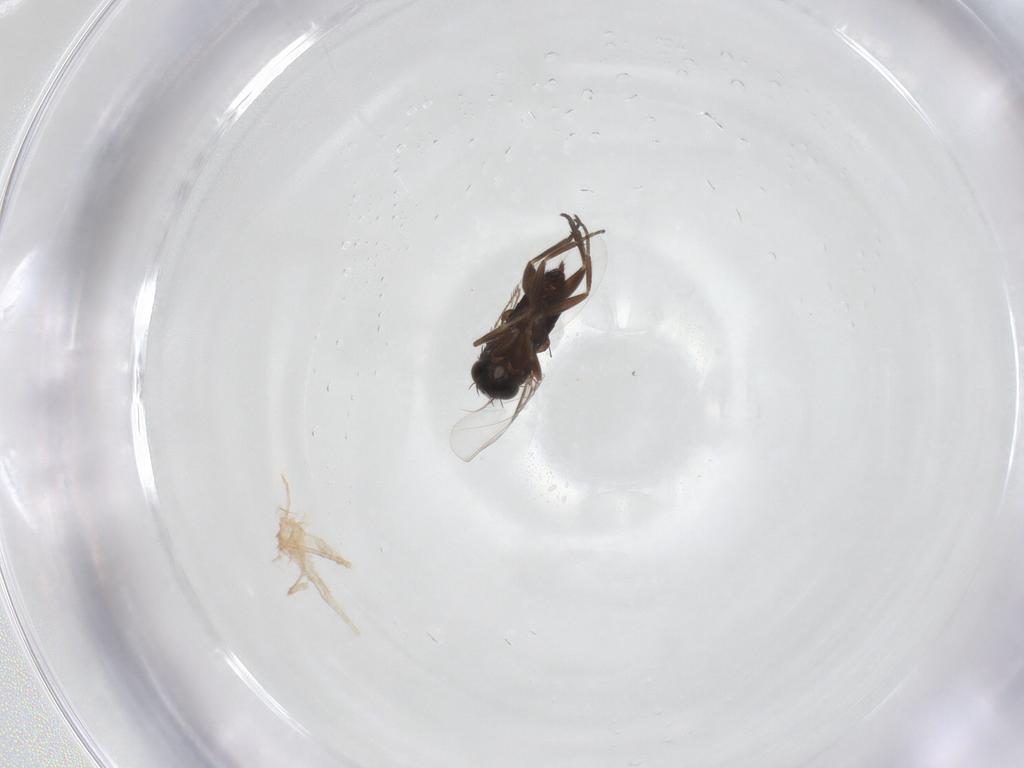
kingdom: Animalia
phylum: Arthropoda
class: Insecta
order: Diptera
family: Phoridae
